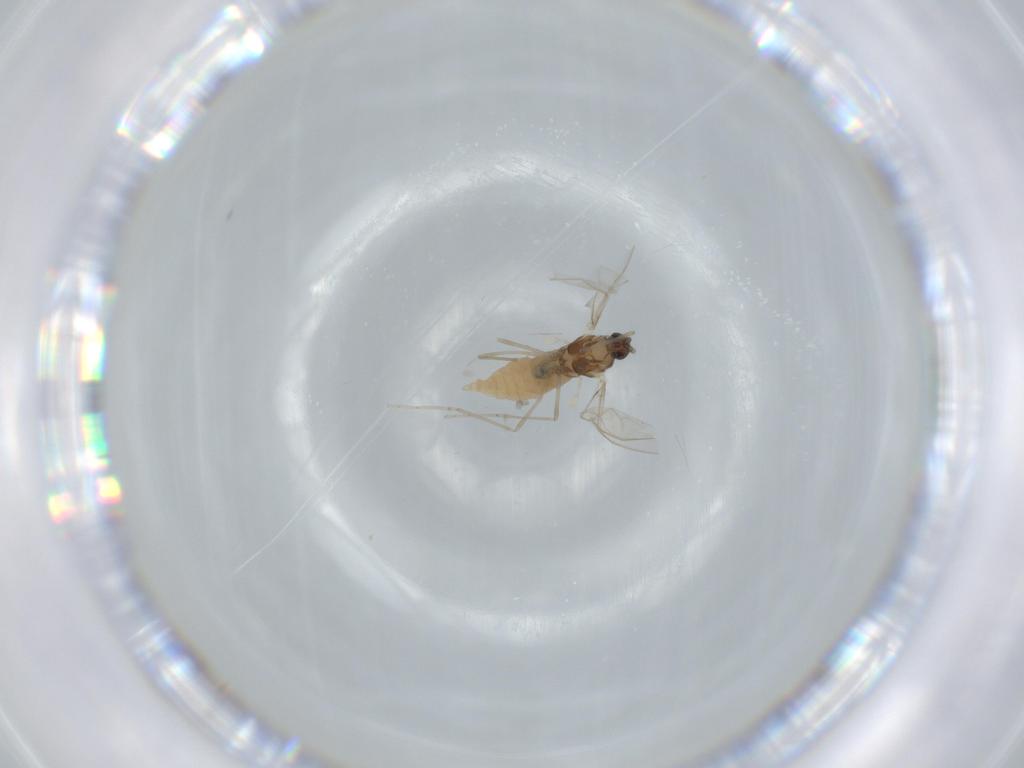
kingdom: Animalia
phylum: Arthropoda
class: Insecta
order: Diptera
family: Cecidomyiidae
